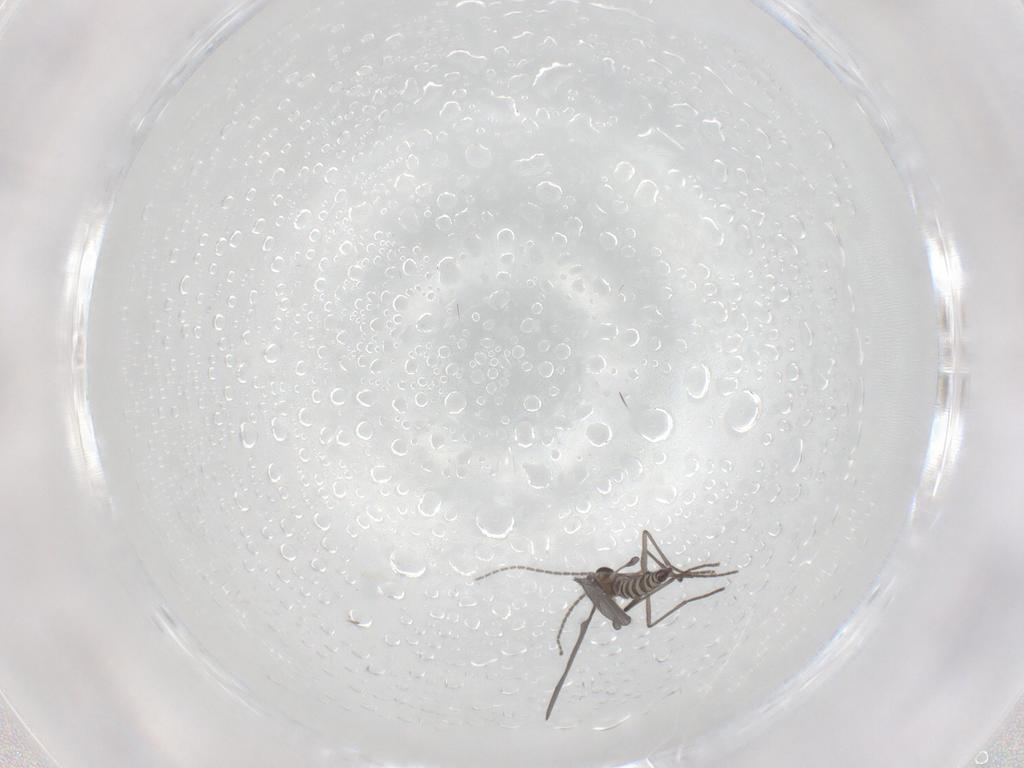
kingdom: Animalia
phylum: Arthropoda
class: Insecta
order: Diptera
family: Sciaridae
